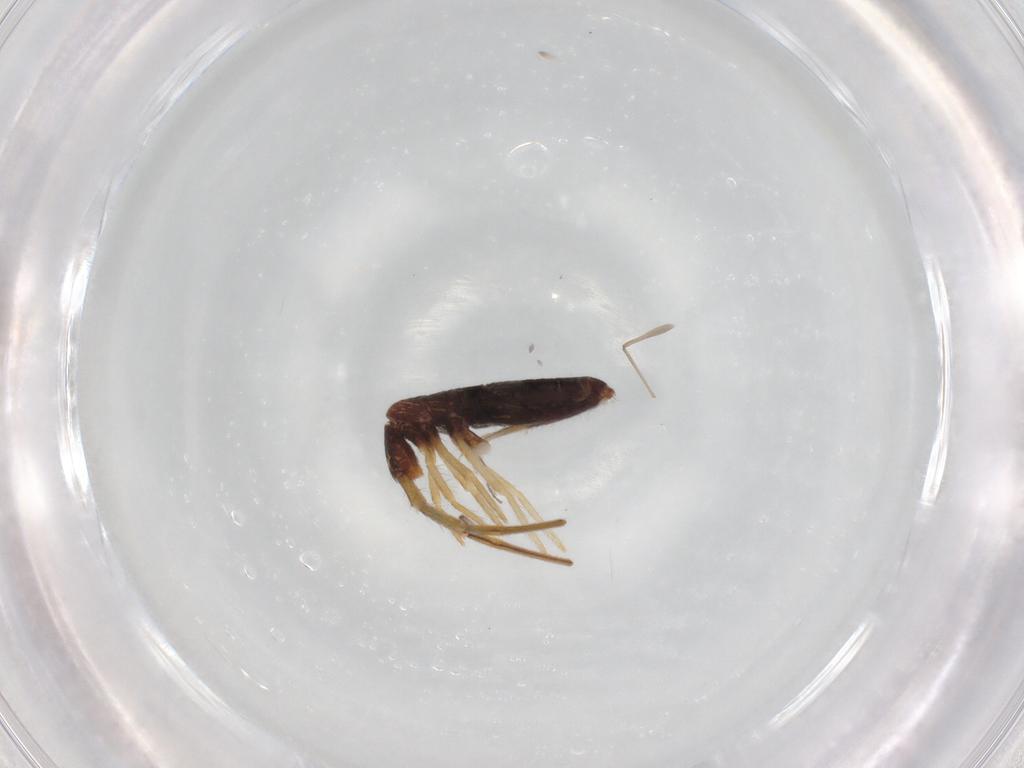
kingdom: Animalia
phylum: Arthropoda
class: Collembola
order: Entomobryomorpha
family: Entomobryidae
